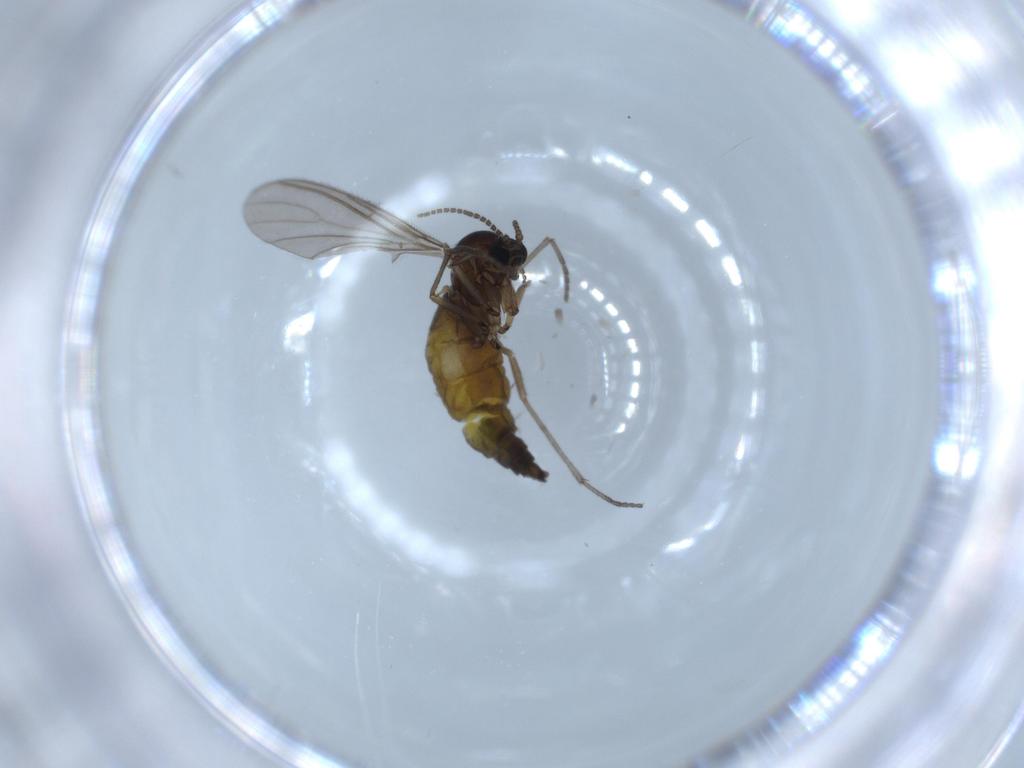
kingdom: Animalia
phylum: Arthropoda
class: Insecta
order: Diptera
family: Sciaridae
